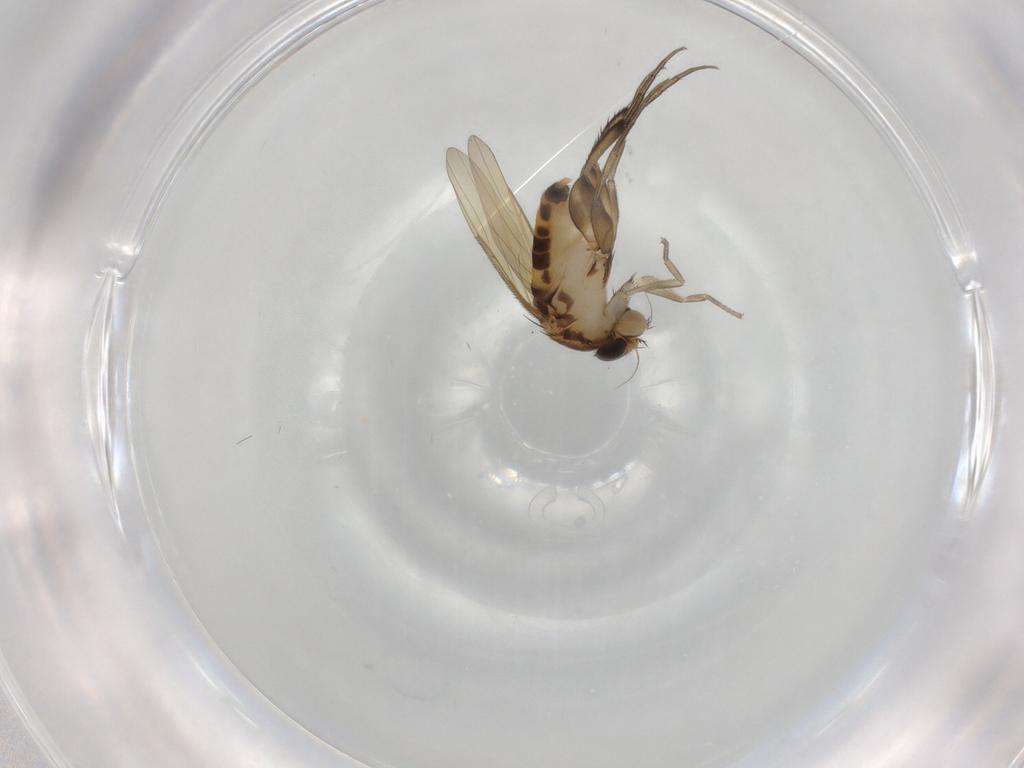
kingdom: Animalia
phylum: Arthropoda
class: Insecta
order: Diptera
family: Phoridae
